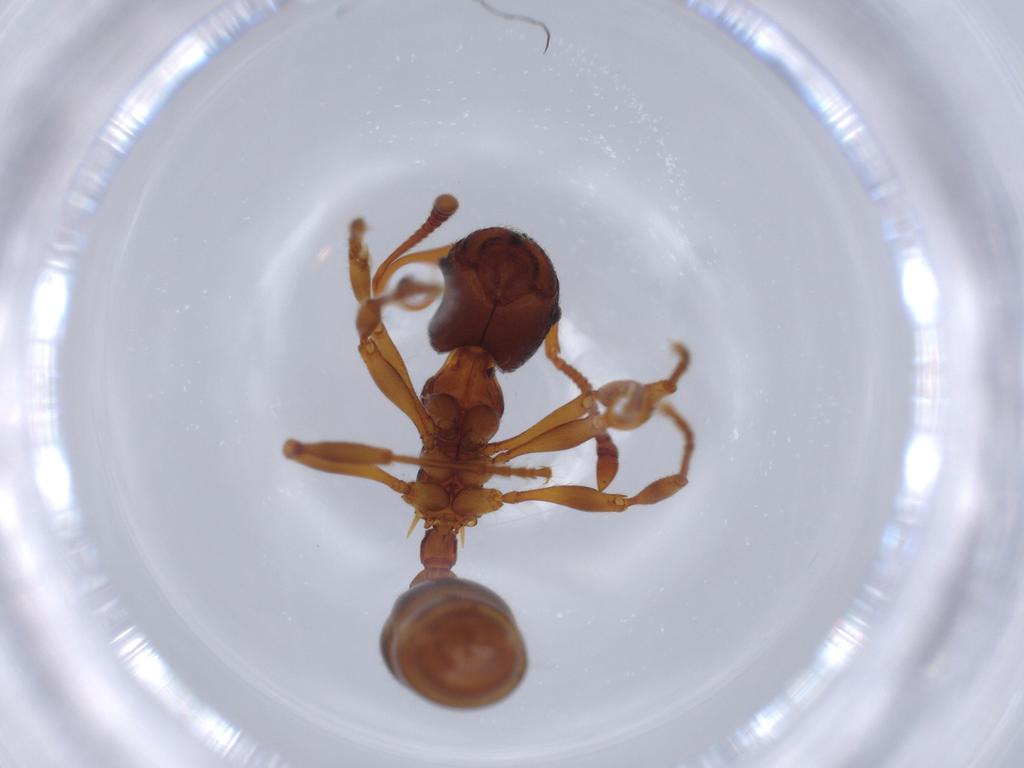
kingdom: Animalia
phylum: Arthropoda
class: Insecta
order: Hymenoptera
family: Formicidae
